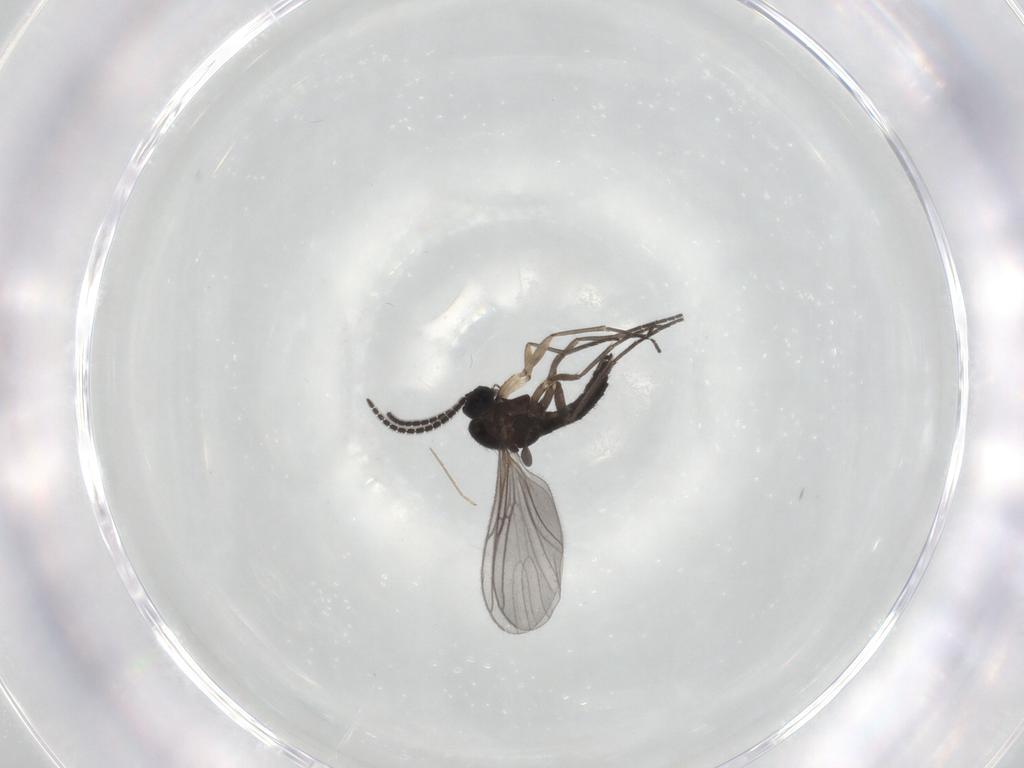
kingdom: Animalia
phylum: Arthropoda
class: Insecta
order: Diptera
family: Sciaridae
